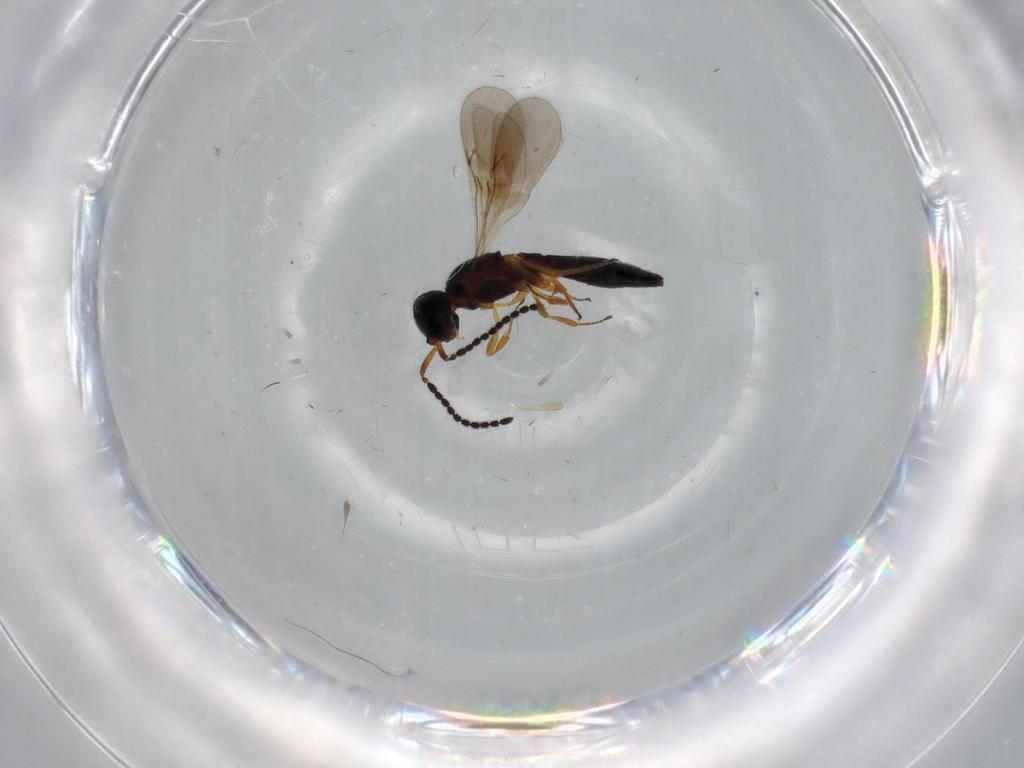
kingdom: Animalia
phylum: Arthropoda
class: Insecta
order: Hymenoptera
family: Scelionidae
